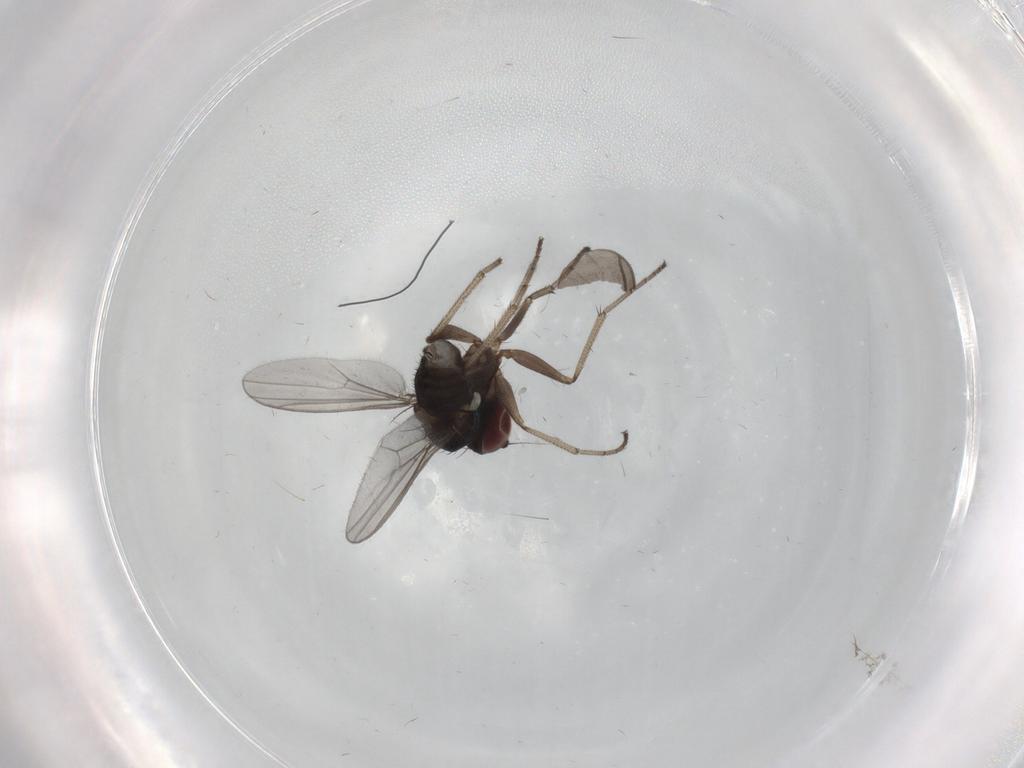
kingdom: Animalia
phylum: Arthropoda
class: Insecta
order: Diptera
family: Dolichopodidae
